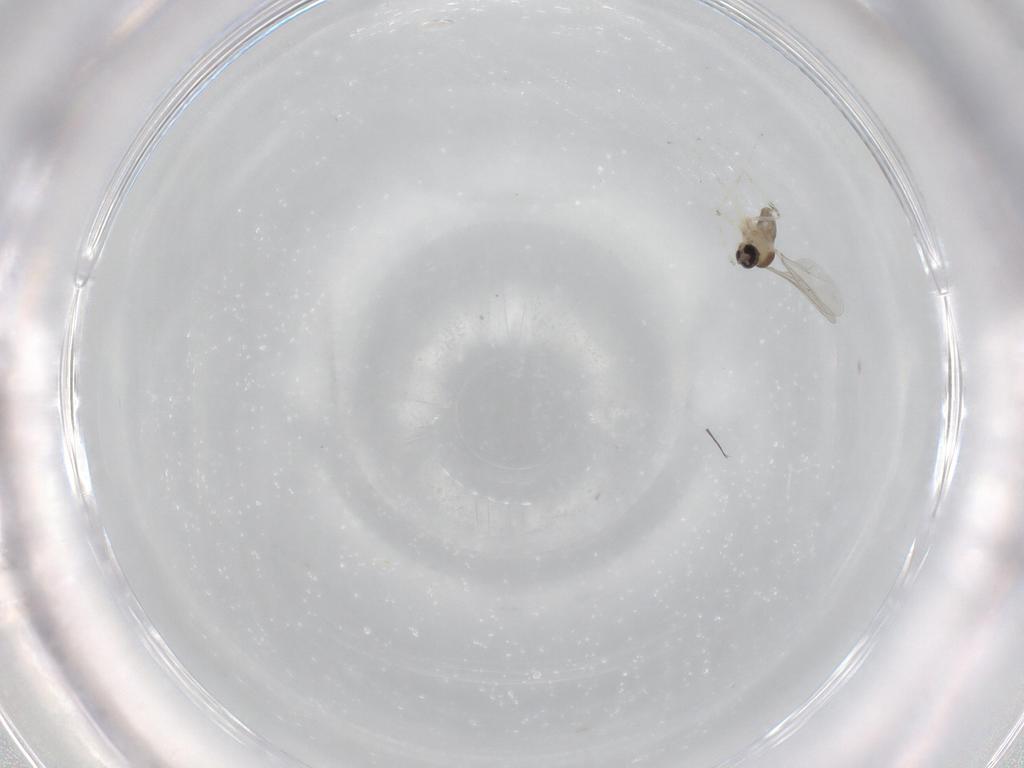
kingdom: Animalia
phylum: Arthropoda
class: Insecta
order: Diptera
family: Cecidomyiidae
